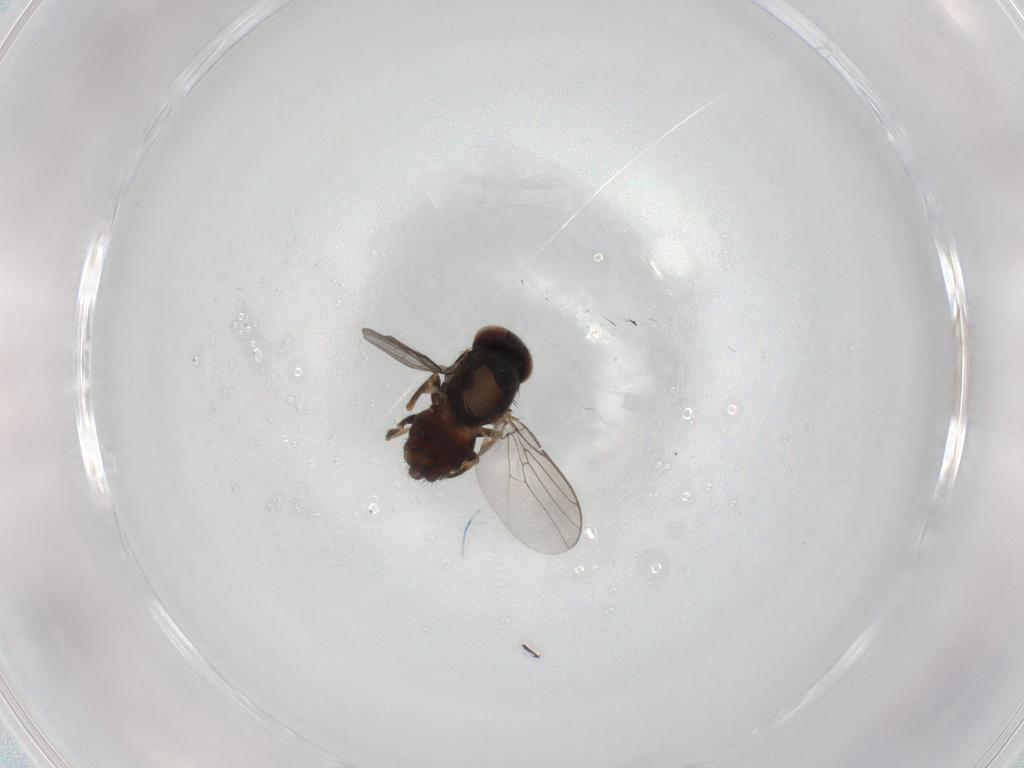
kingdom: Animalia
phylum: Arthropoda
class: Insecta
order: Diptera
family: Chloropidae
